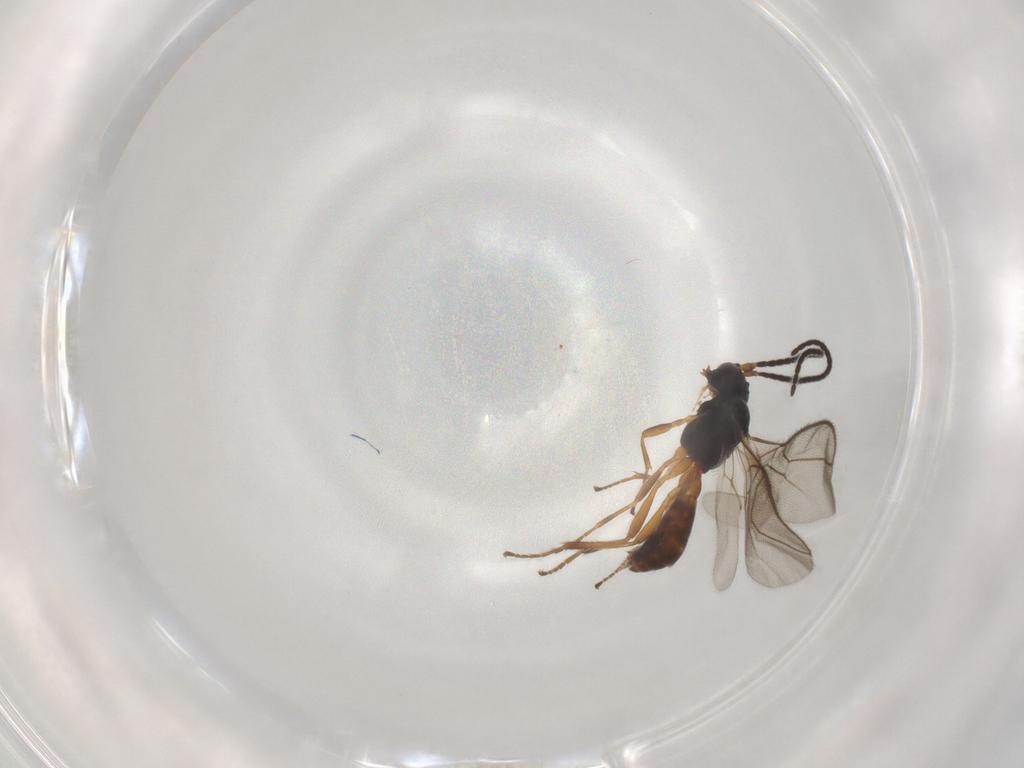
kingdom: Animalia
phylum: Arthropoda
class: Insecta
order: Hymenoptera
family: Braconidae
